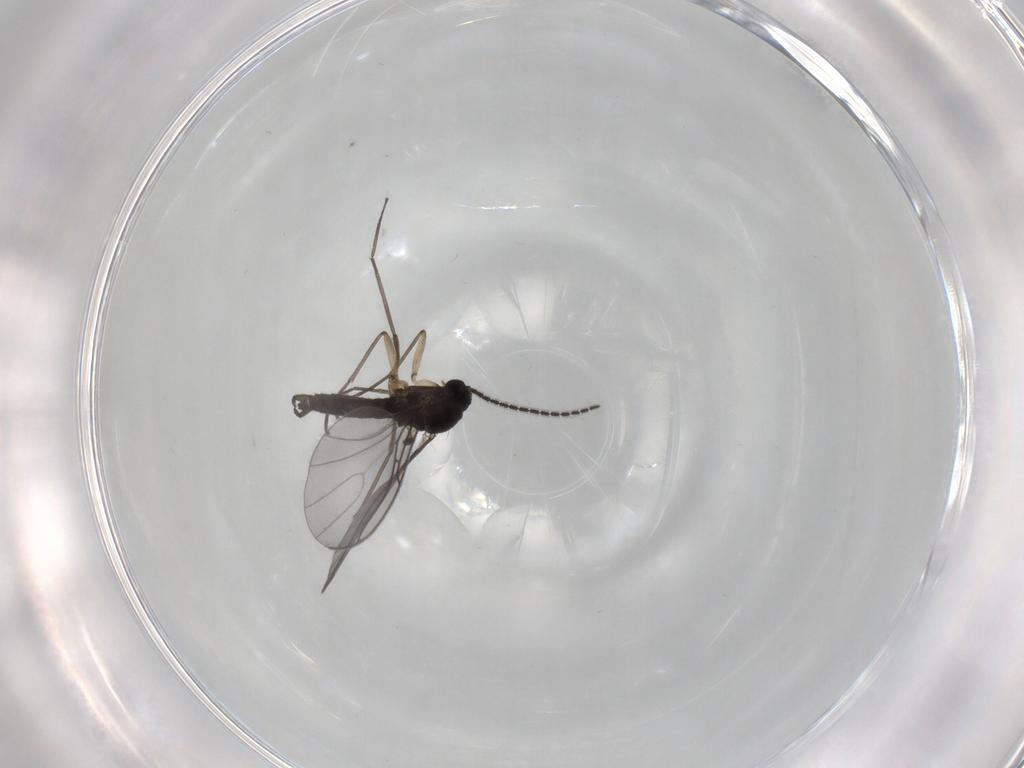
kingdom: Animalia
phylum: Arthropoda
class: Insecta
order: Diptera
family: Sciaridae
